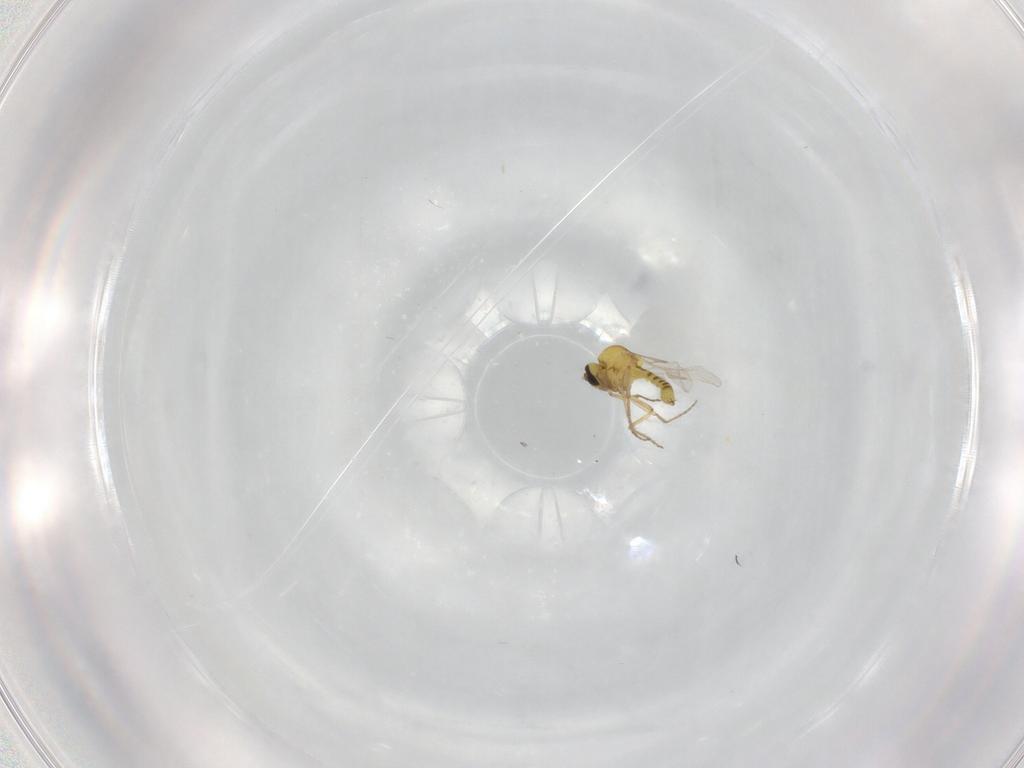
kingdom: Animalia
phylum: Arthropoda
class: Insecta
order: Diptera
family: Ceratopogonidae
